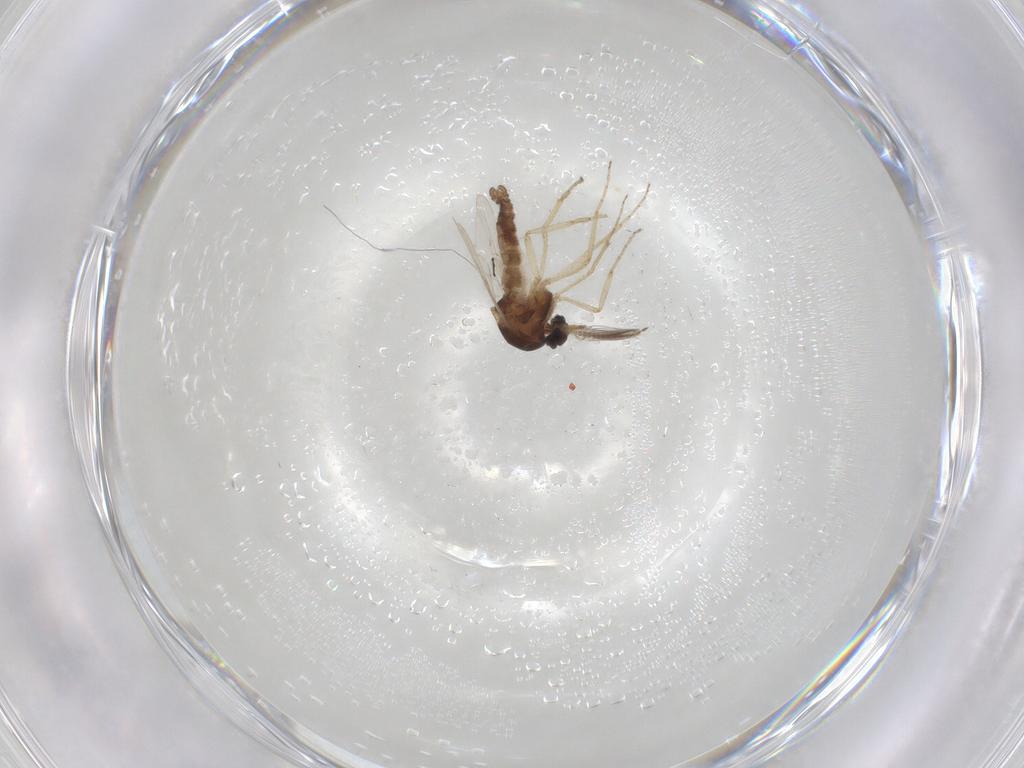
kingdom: Animalia
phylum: Arthropoda
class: Insecta
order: Diptera
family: Ceratopogonidae
